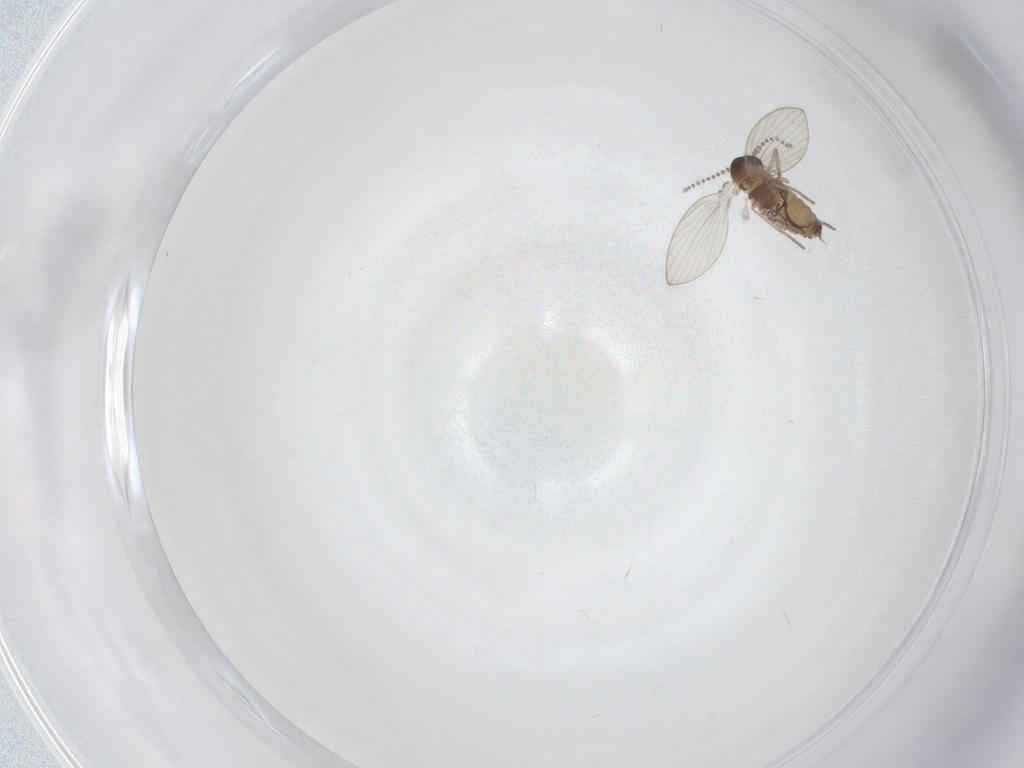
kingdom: Animalia
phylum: Arthropoda
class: Insecta
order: Diptera
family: Psychodidae
